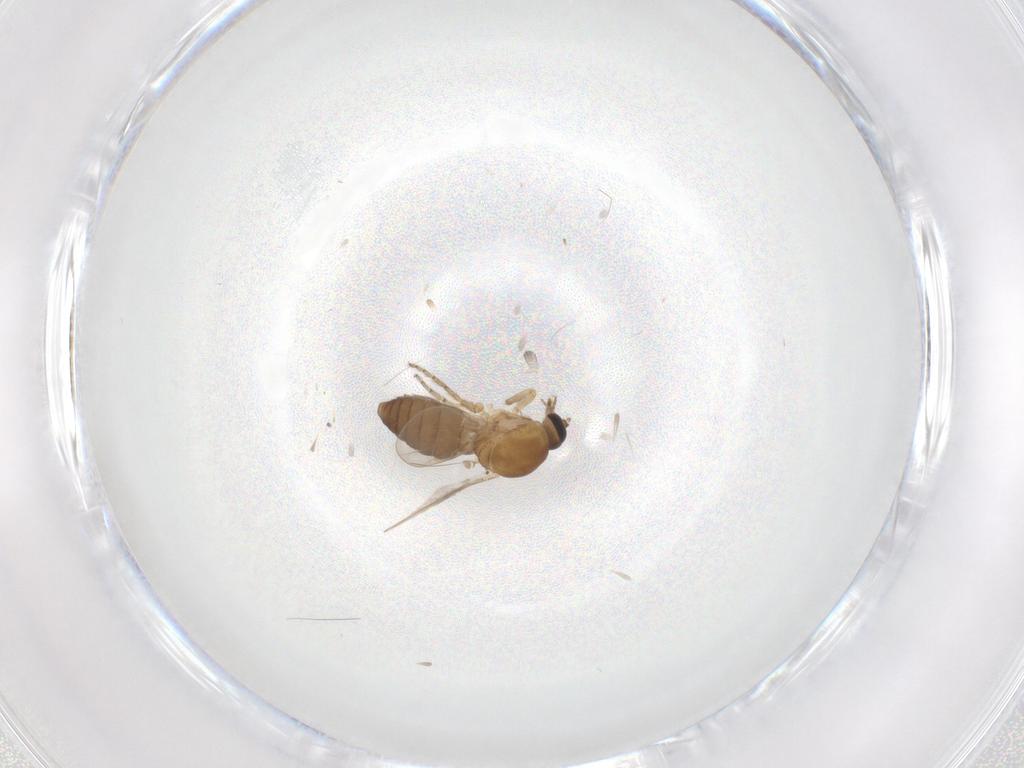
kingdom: Animalia
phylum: Arthropoda
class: Insecta
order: Diptera
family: Ceratopogonidae
